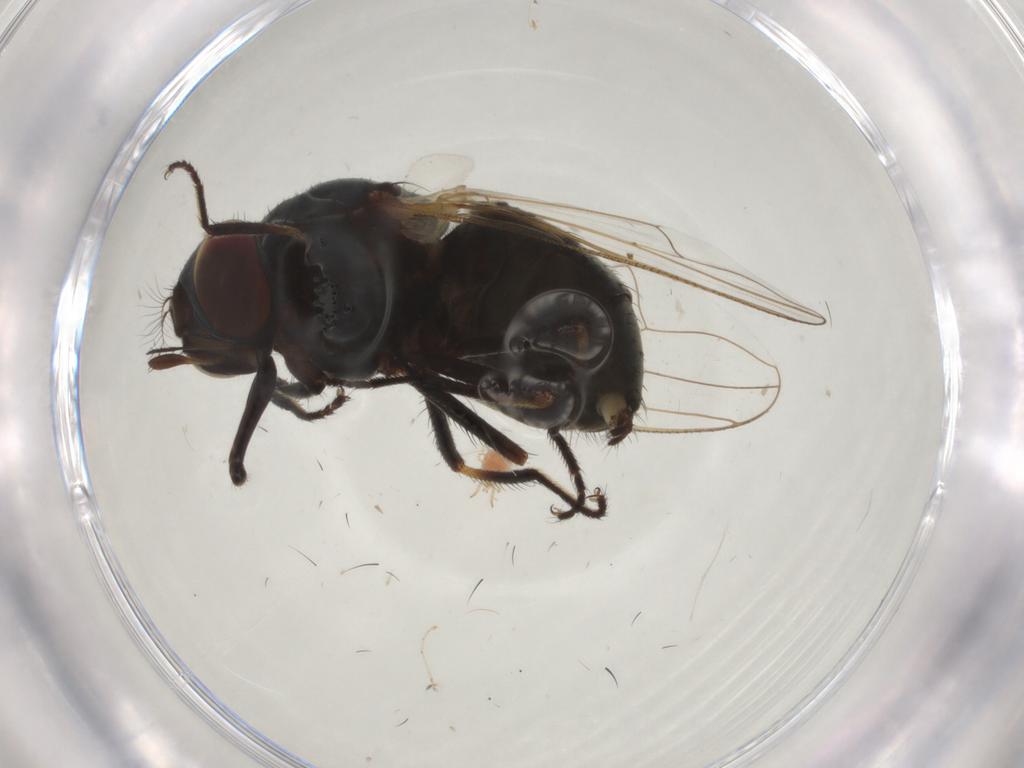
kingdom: Animalia
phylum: Arthropoda
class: Insecta
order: Diptera
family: Muscidae
